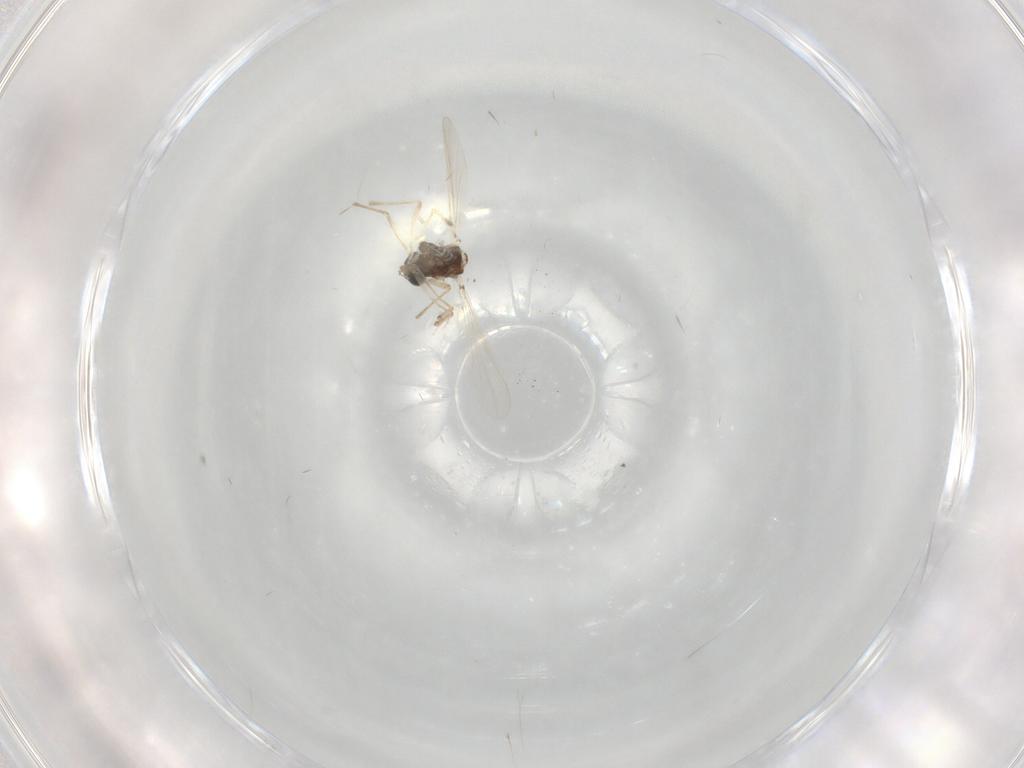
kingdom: Animalia
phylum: Arthropoda
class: Insecta
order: Diptera
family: Chironomidae
